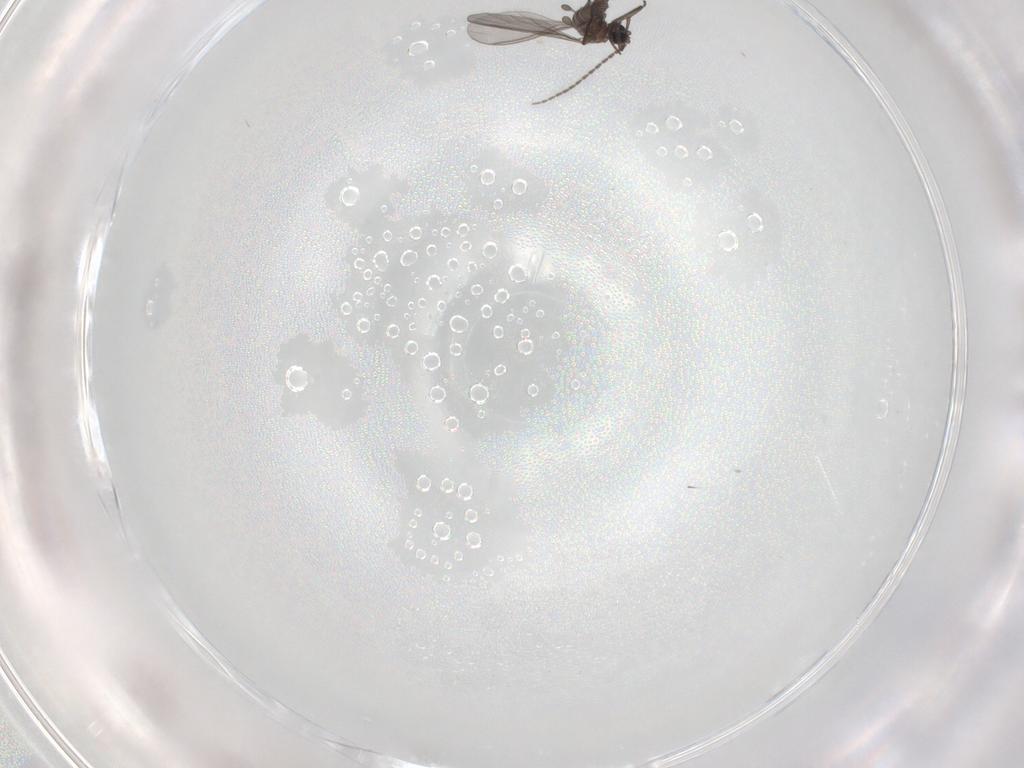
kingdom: Animalia
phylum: Arthropoda
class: Insecta
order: Diptera
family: Sciaridae
